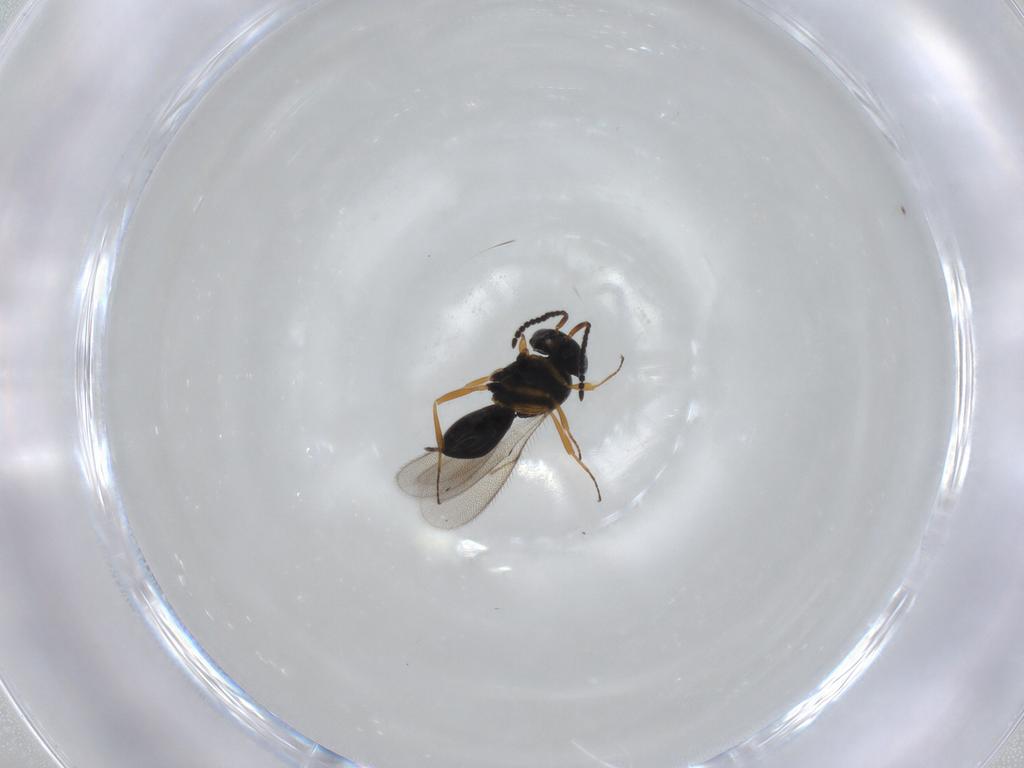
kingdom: Animalia
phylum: Arthropoda
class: Insecta
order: Hymenoptera
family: Scelionidae
